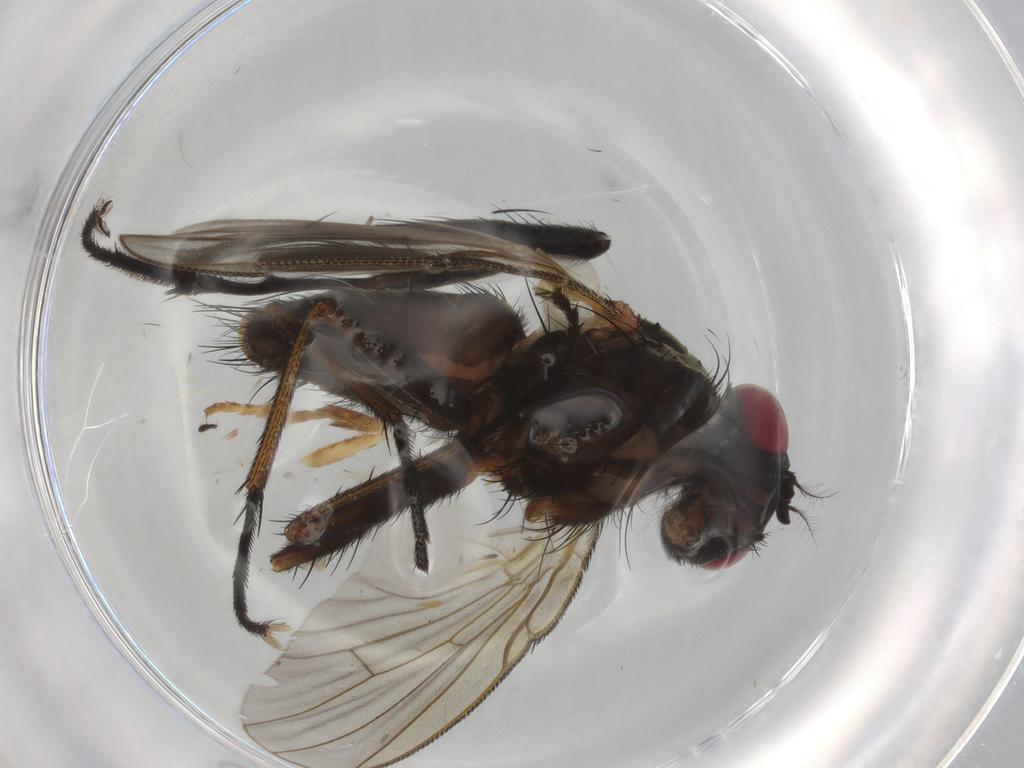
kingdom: Animalia
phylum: Arthropoda
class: Insecta
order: Diptera
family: Muscidae
